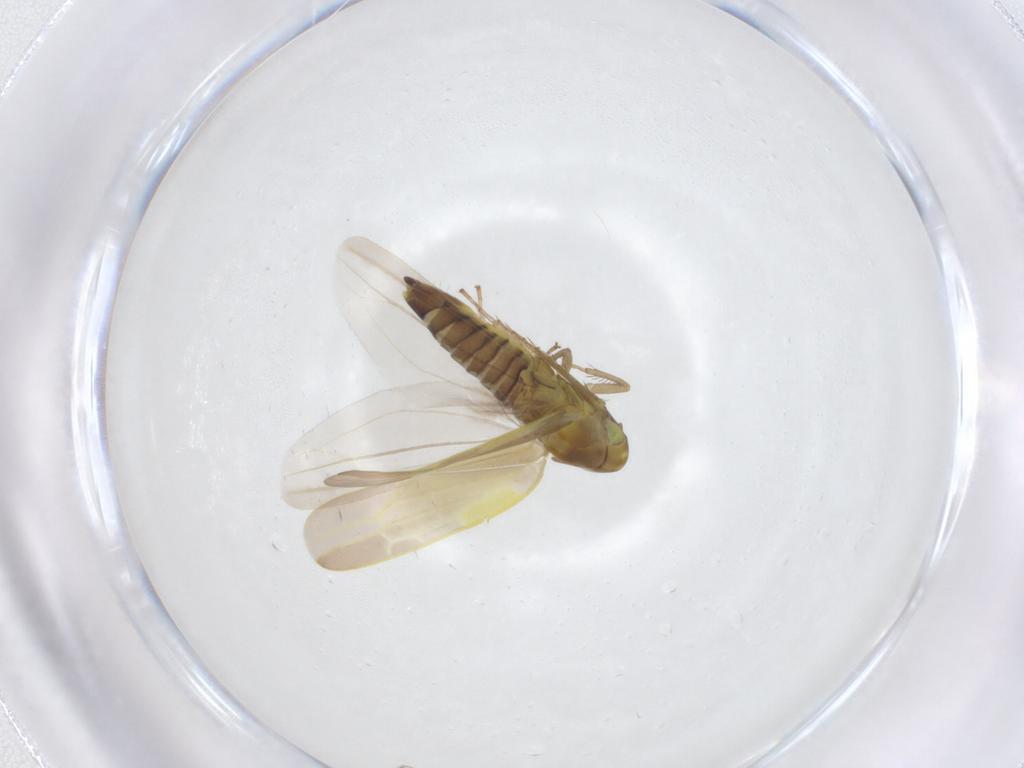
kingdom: Animalia
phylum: Arthropoda
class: Insecta
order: Hemiptera
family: Cicadellidae
